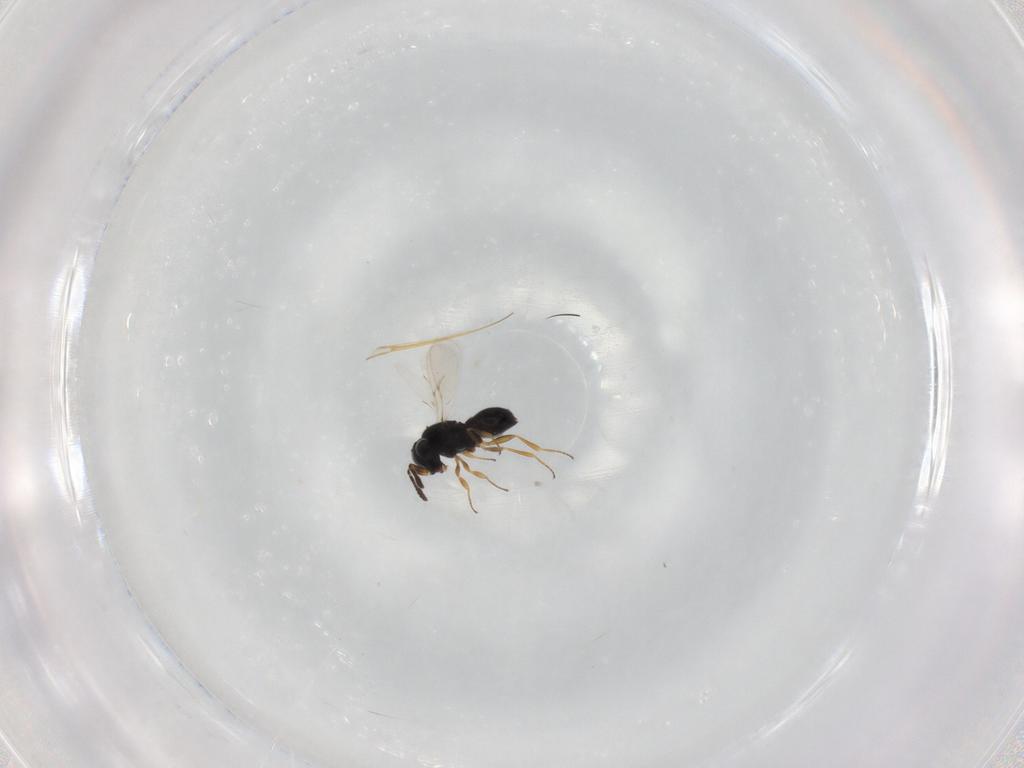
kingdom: Animalia
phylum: Arthropoda
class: Insecta
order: Hymenoptera
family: Scelionidae
